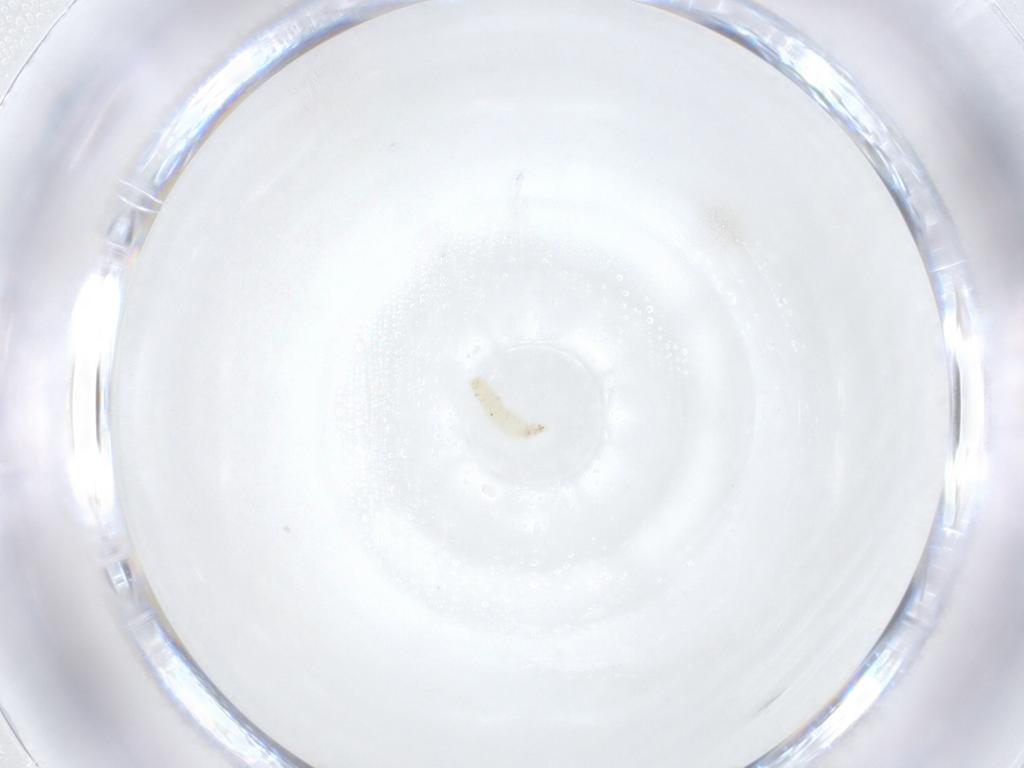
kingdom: Animalia
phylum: Arthropoda
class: Insecta
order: Diptera
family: Sarcophagidae
